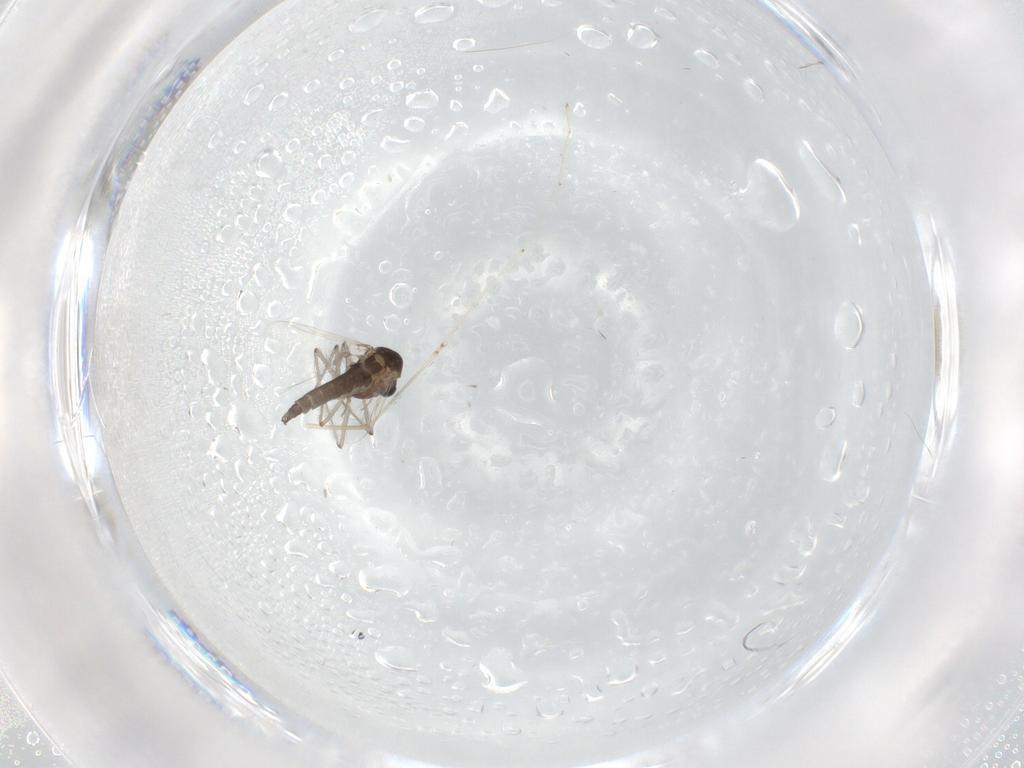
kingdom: Animalia
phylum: Arthropoda
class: Insecta
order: Diptera
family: Chironomidae
